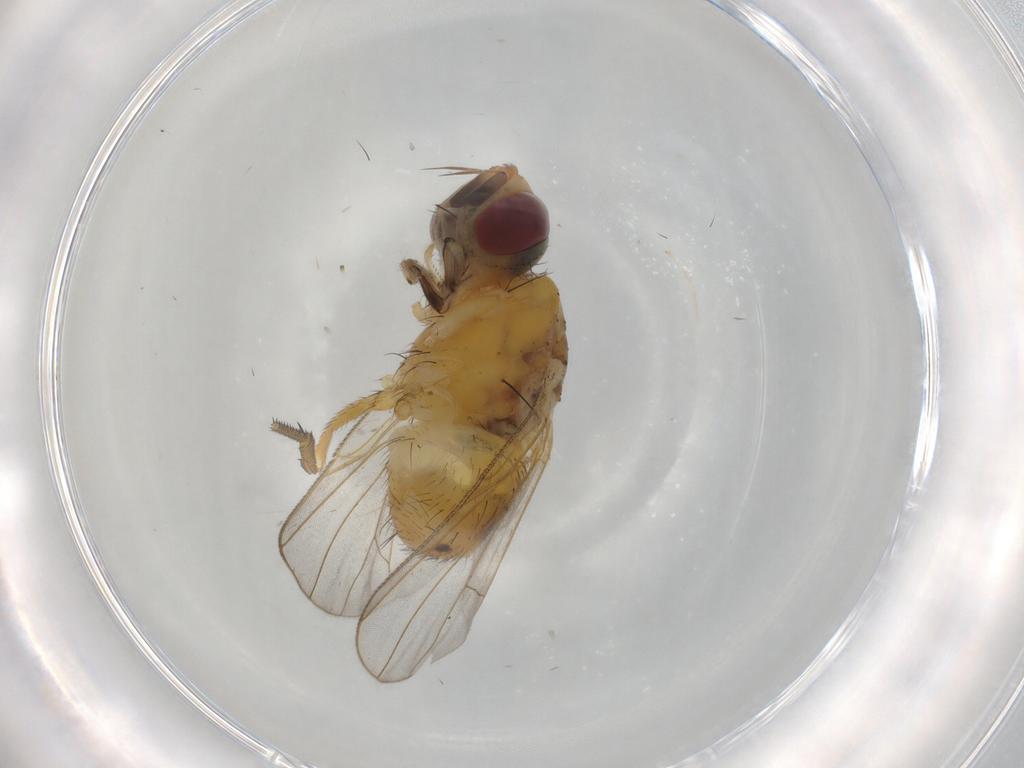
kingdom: Animalia
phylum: Arthropoda
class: Insecta
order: Diptera
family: Muscidae
